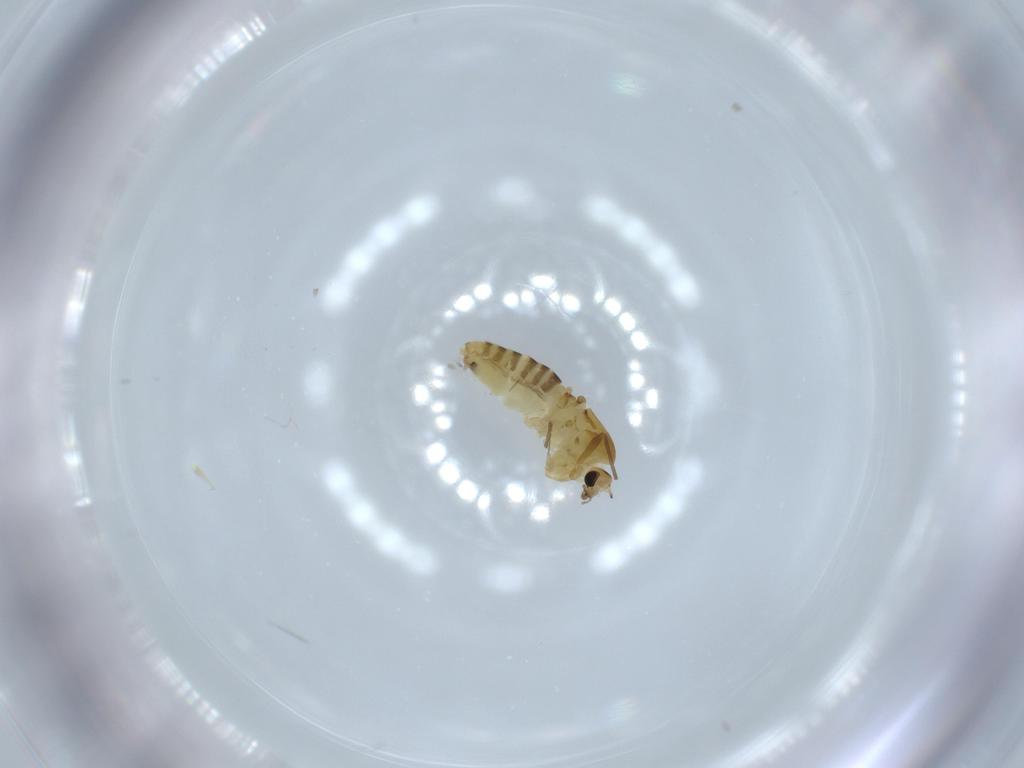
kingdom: Animalia
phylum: Arthropoda
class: Insecta
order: Diptera
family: Chironomidae
